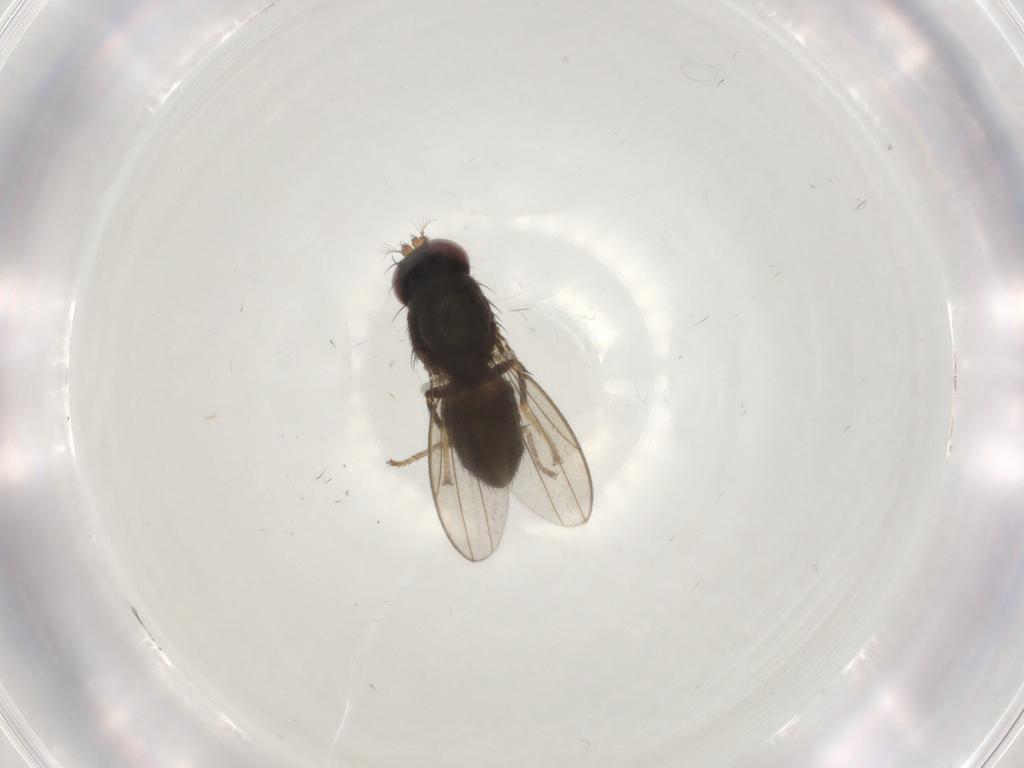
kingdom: Animalia
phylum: Arthropoda
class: Insecta
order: Diptera
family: Ephydridae
